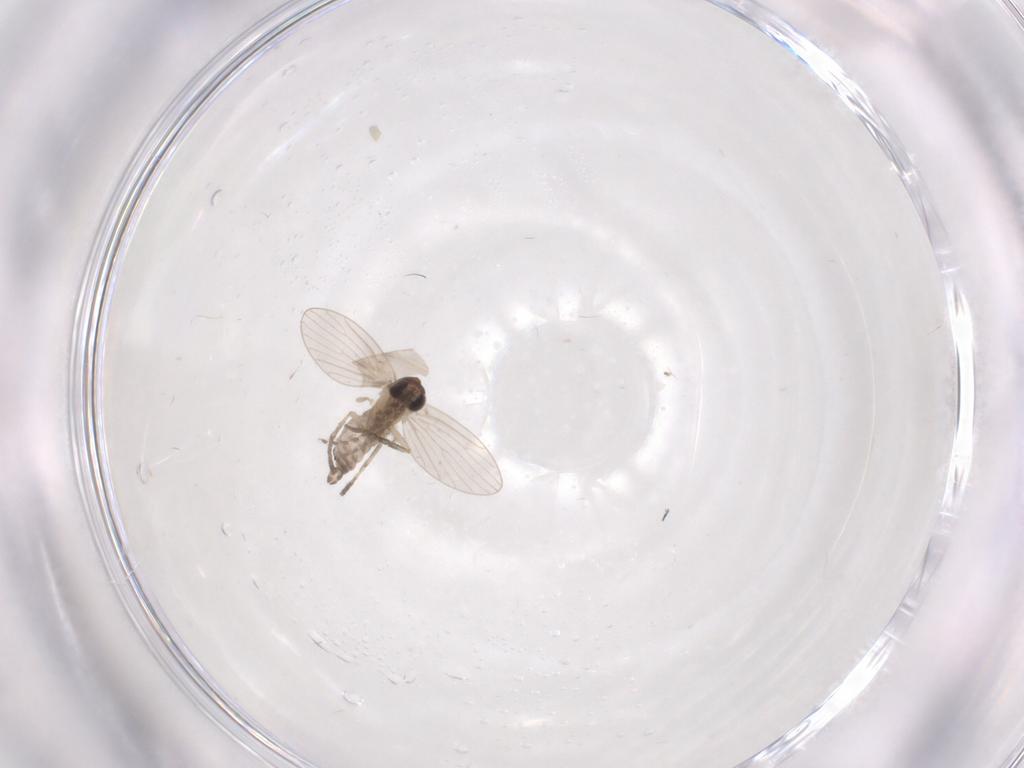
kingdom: Animalia
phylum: Arthropoda
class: Insecta
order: Diptera
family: Psychodidae
